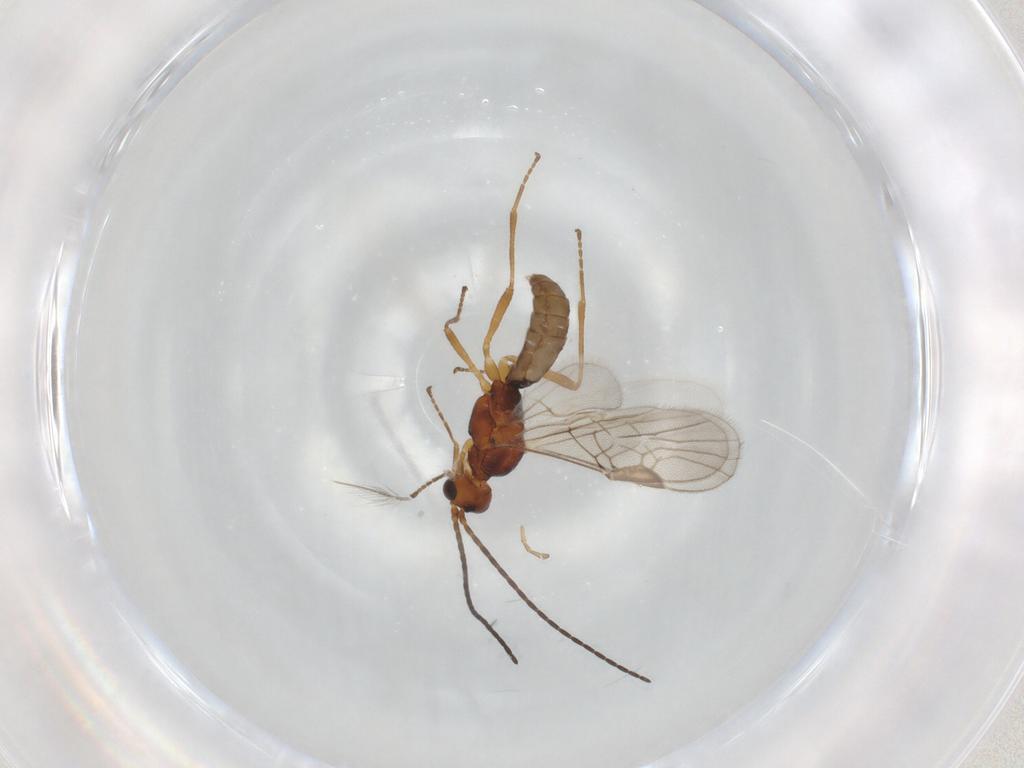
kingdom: Animalia
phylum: Arthropoda
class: Insecta
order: Hymenoptera
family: Braconidae
